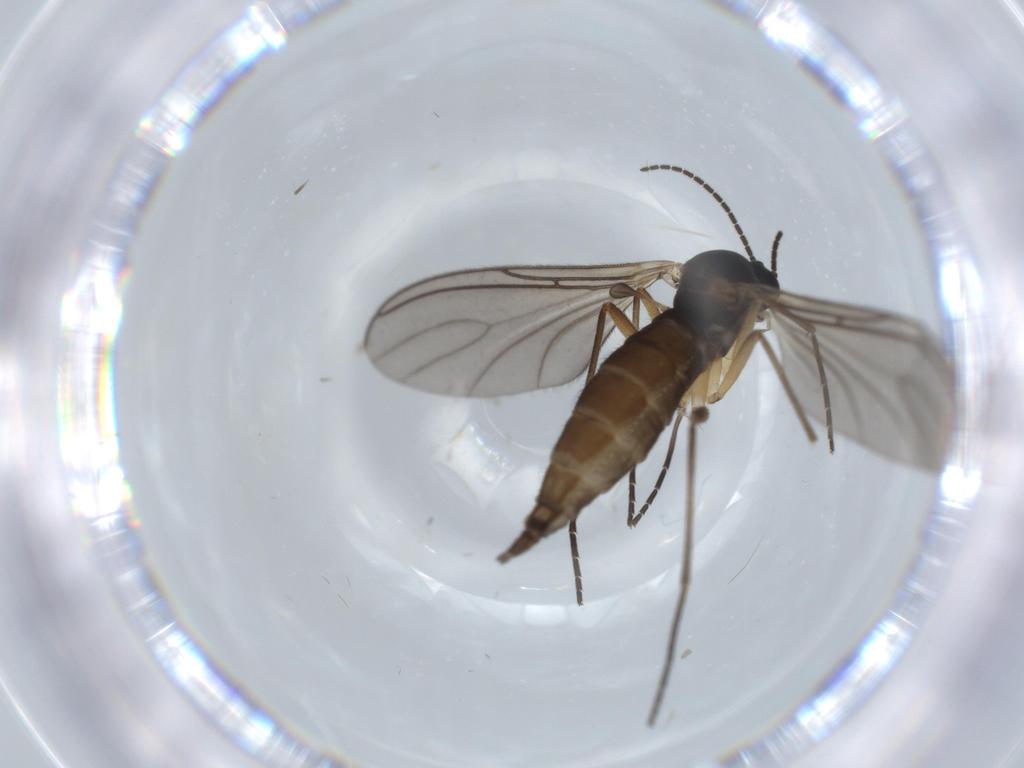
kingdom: Animalia
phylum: Arthropoda
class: Insecta
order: Diptera
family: Sciaridae
